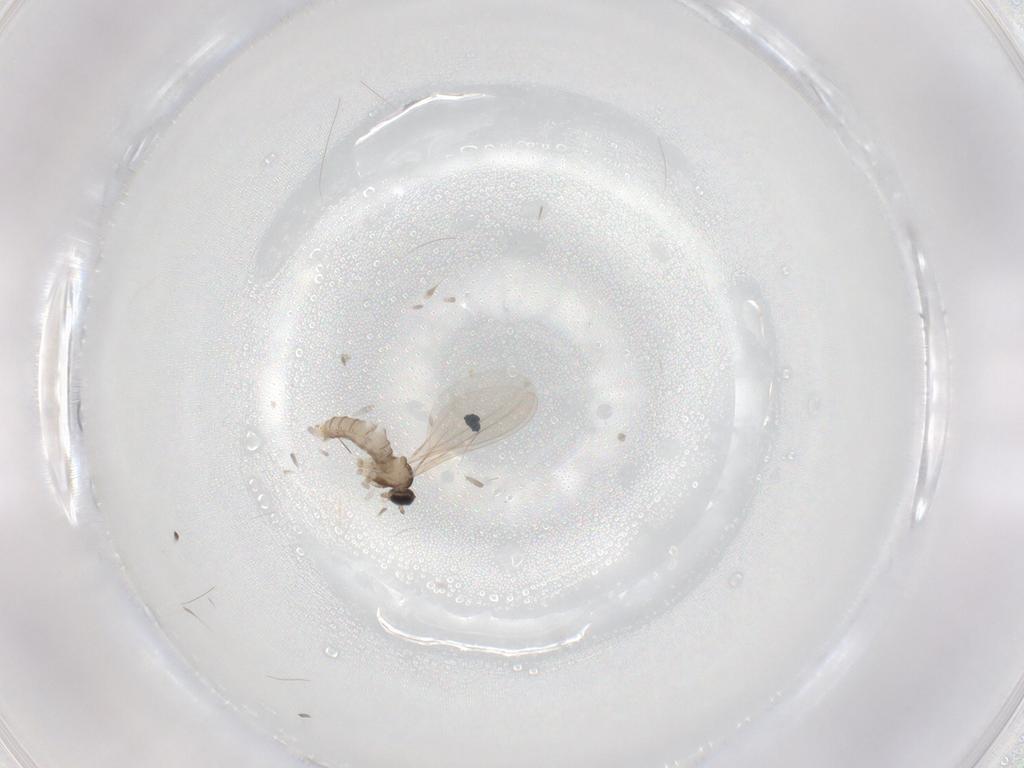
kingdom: Animalia
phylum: Arthropoda
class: Insecta
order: Diptera
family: Cecidomyiidae
